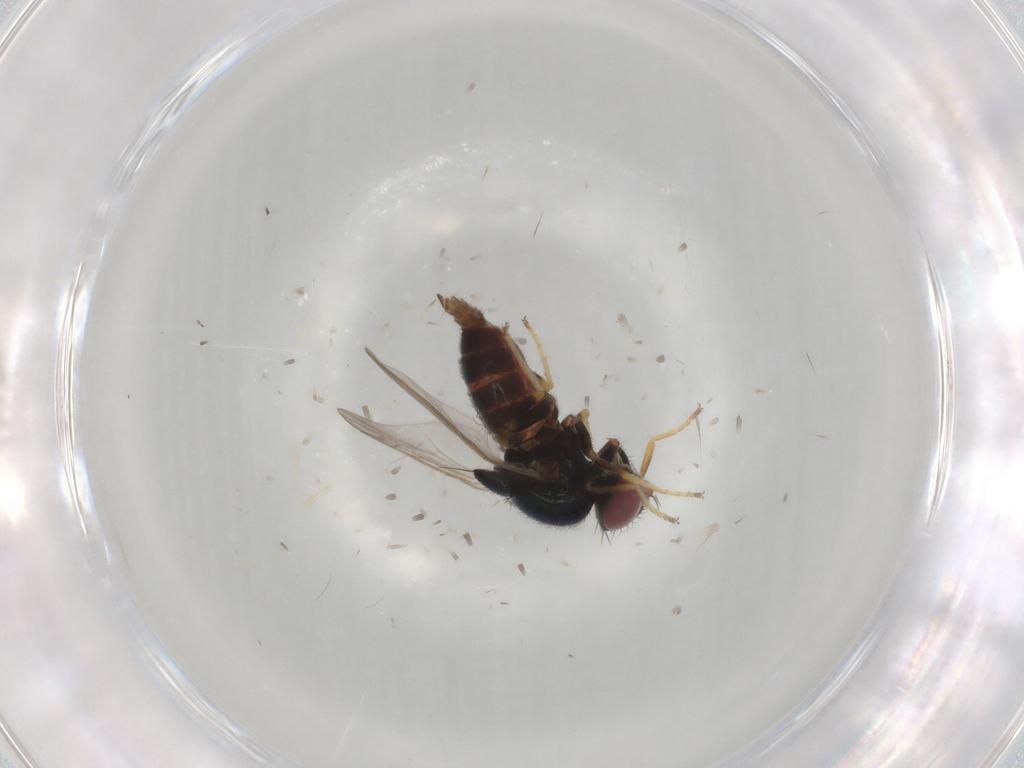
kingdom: Animalia
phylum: Arthropoda
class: Insecta
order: Diptera
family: Chloropidae
